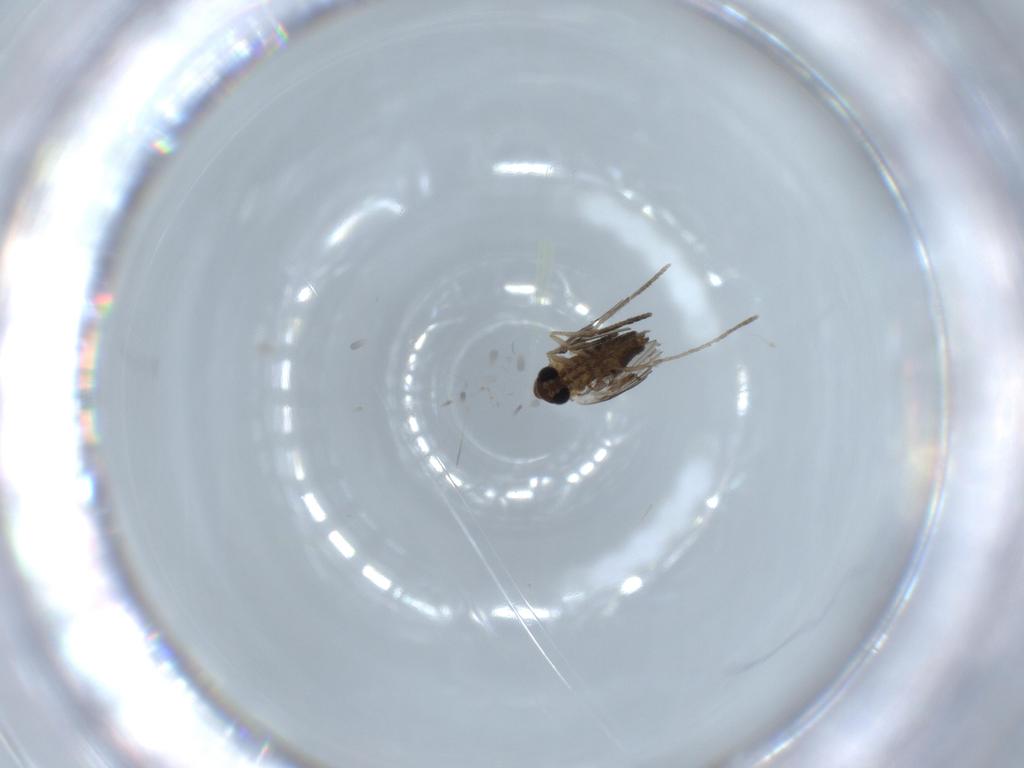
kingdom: Animalia
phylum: Arthropoda
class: Insecta
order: Diptera
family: Psychodidae
